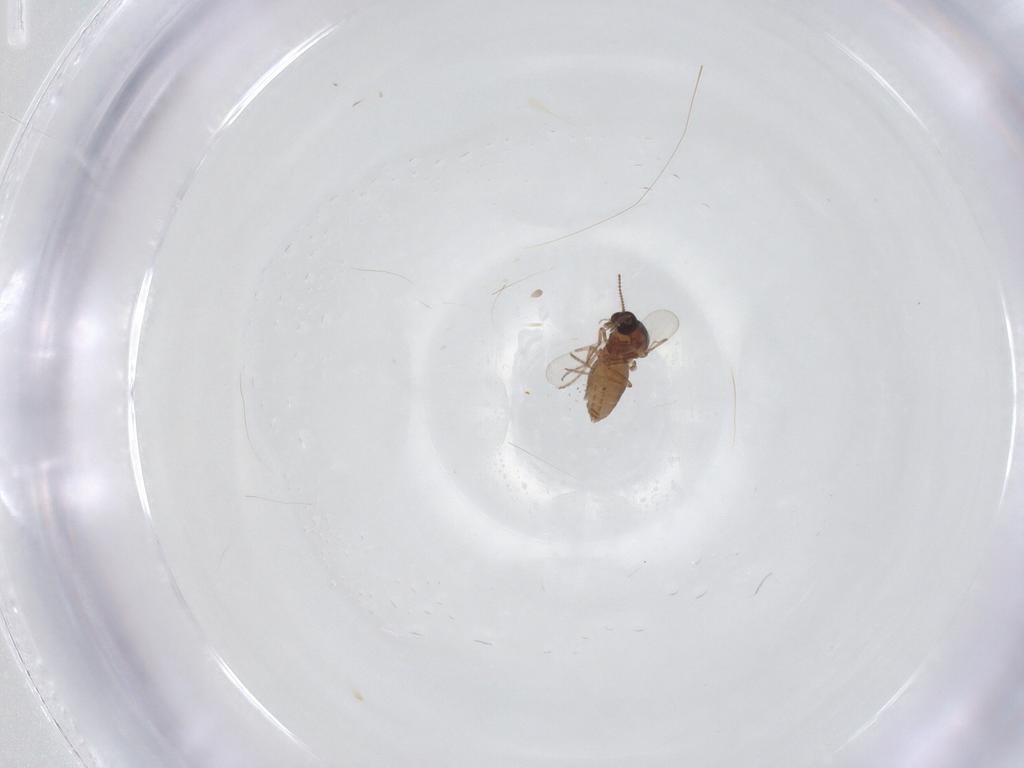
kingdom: Animalia
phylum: Arthropoda
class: Insecta
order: Diptera
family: Ceratopogonidae
